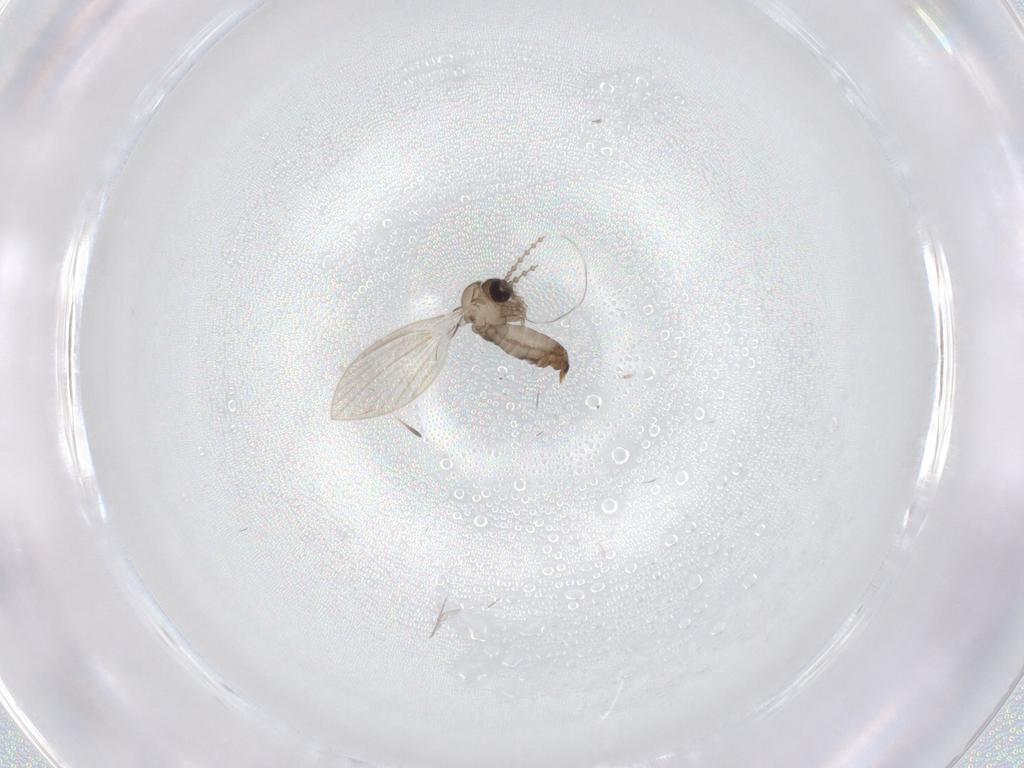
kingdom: Animalia
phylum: Arthropoda
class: Insecta
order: Diptera
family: Psychodidae
